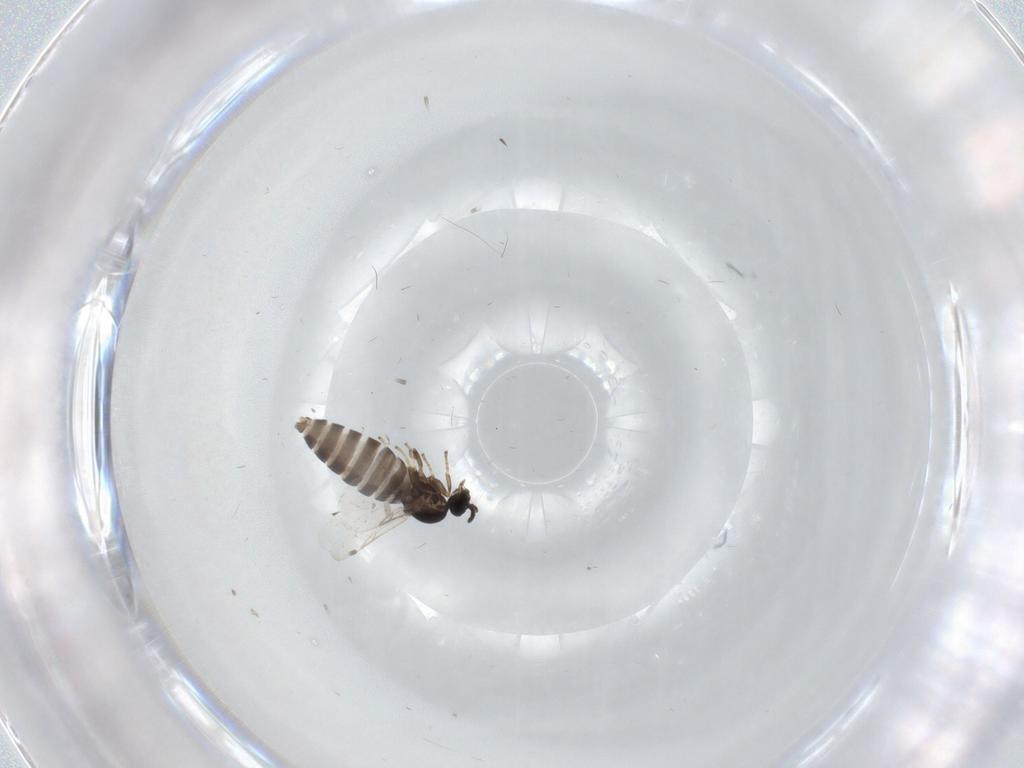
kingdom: Animalia
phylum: Arthropoda
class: Insecta
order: Diptera
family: Scatopsidae
